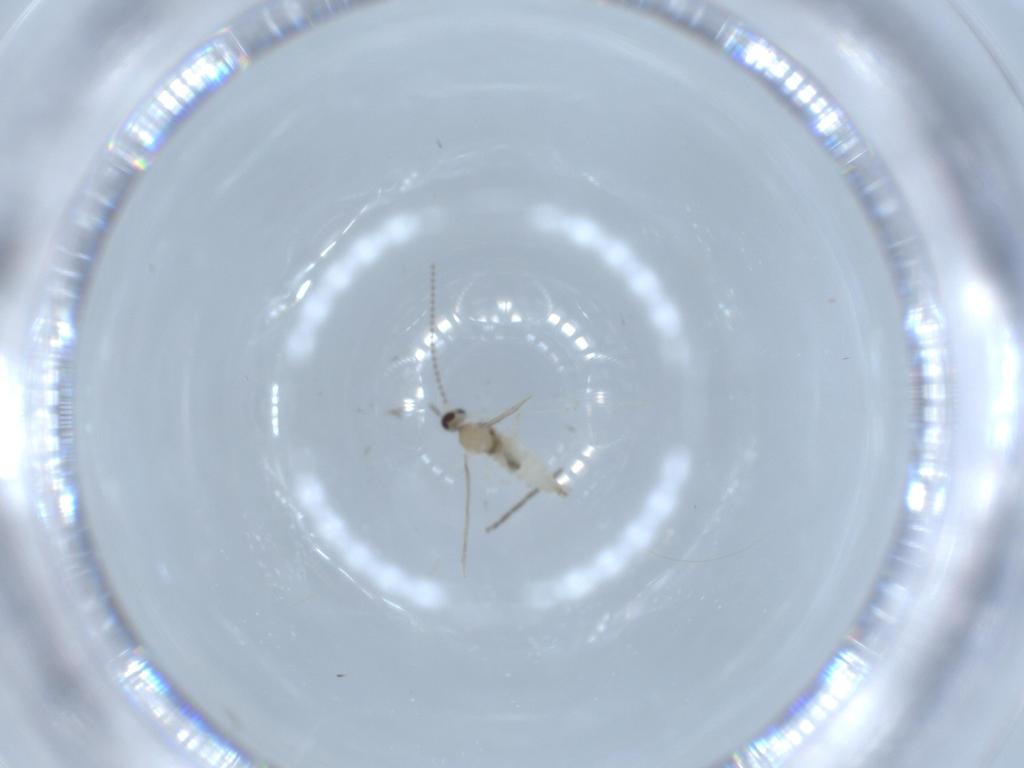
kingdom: Animalia
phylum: Arthropoda
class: Insecta
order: Diptera
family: Cecidomyiidae
